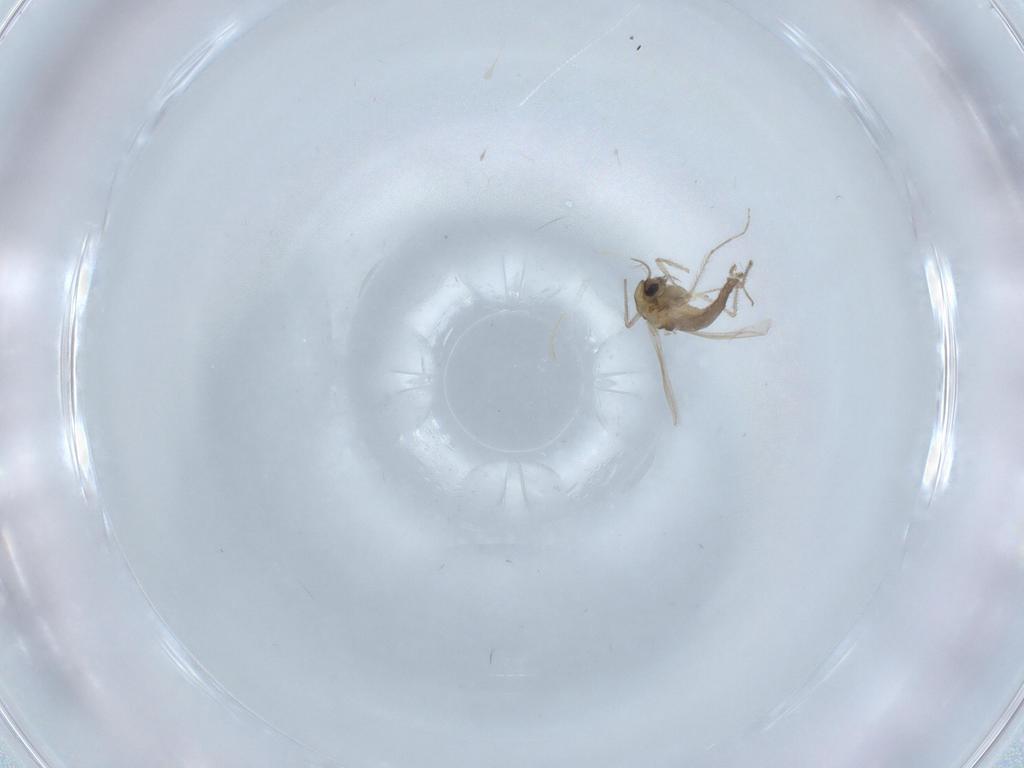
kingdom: Animalia
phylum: Arthropoda
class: Insecta
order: Diptera
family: Chironomidae
